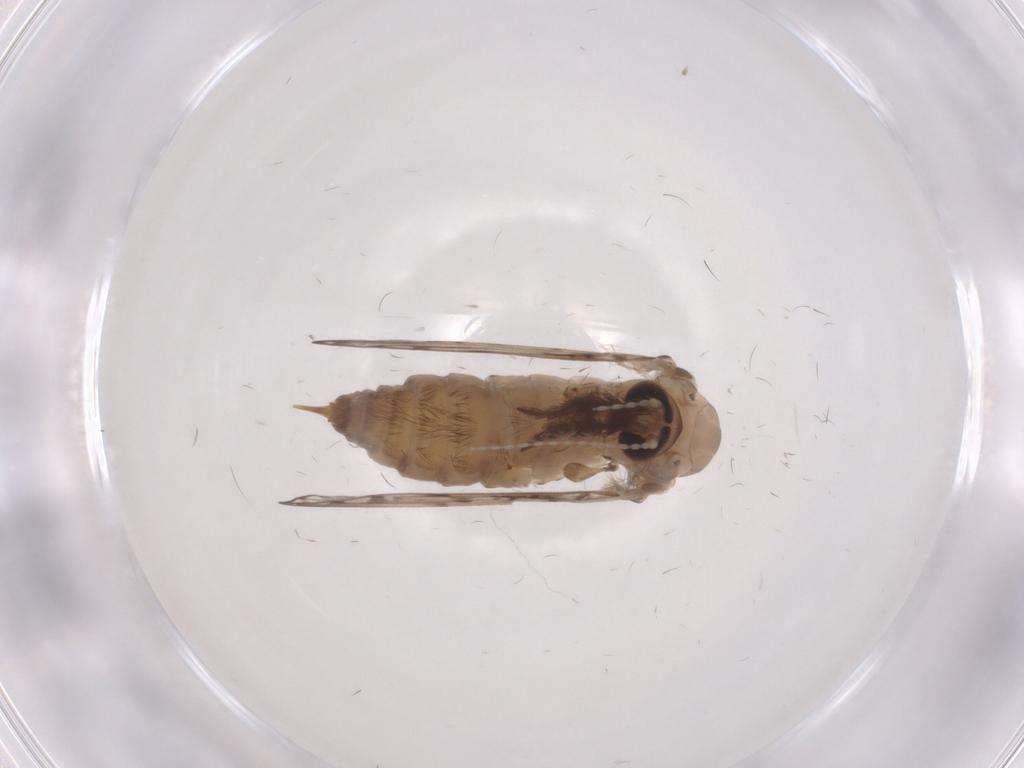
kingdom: Animalia
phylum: Arthropoda
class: Insecta
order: Diptera
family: Psychodidae
